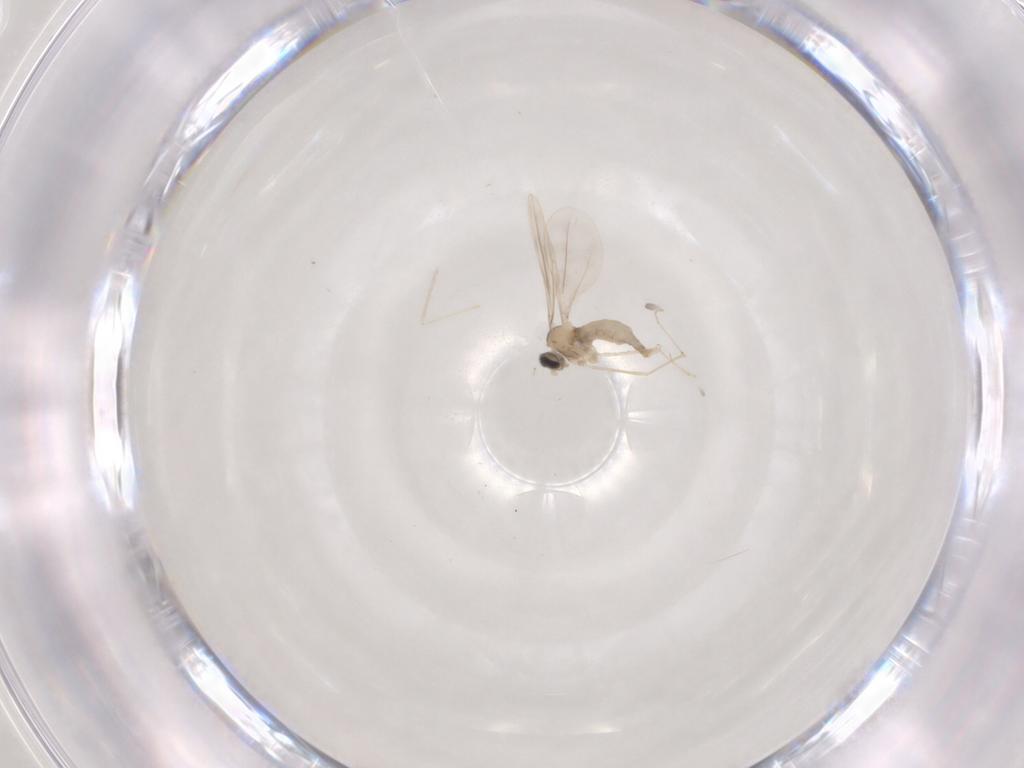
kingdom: Animalia
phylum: Arthropoda
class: Insecta
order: Diptera
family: Cecidomyiidae
